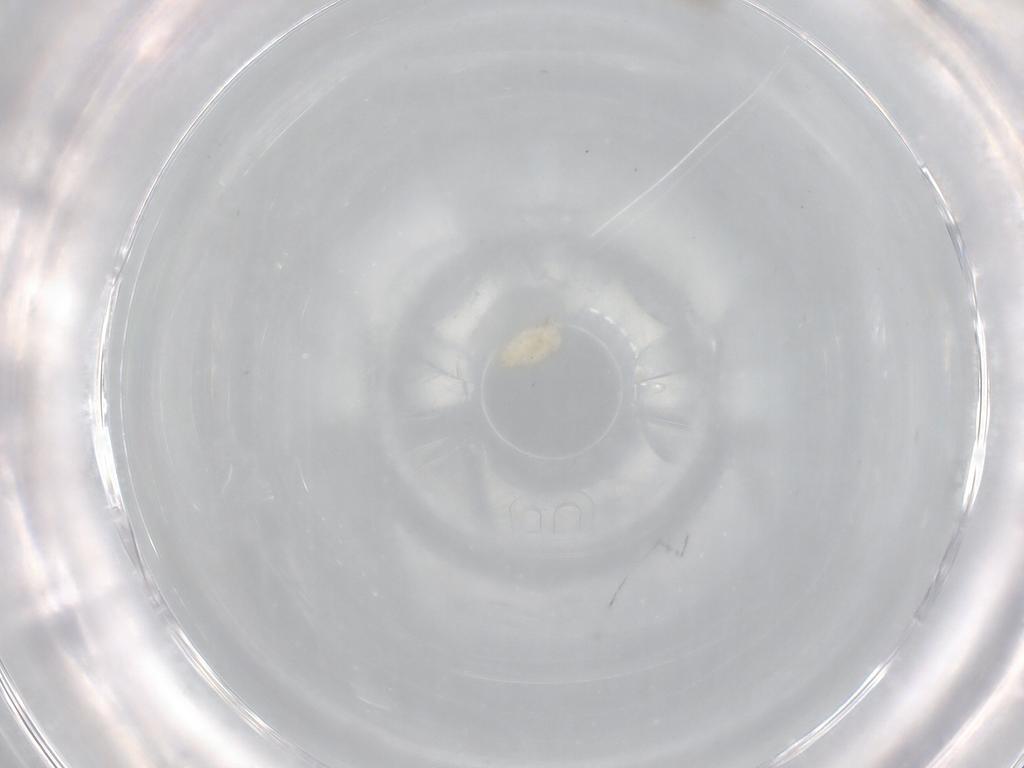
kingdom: Animalia
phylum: Arthropoda
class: Insecta
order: Diptera
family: Cecidomyiidae
